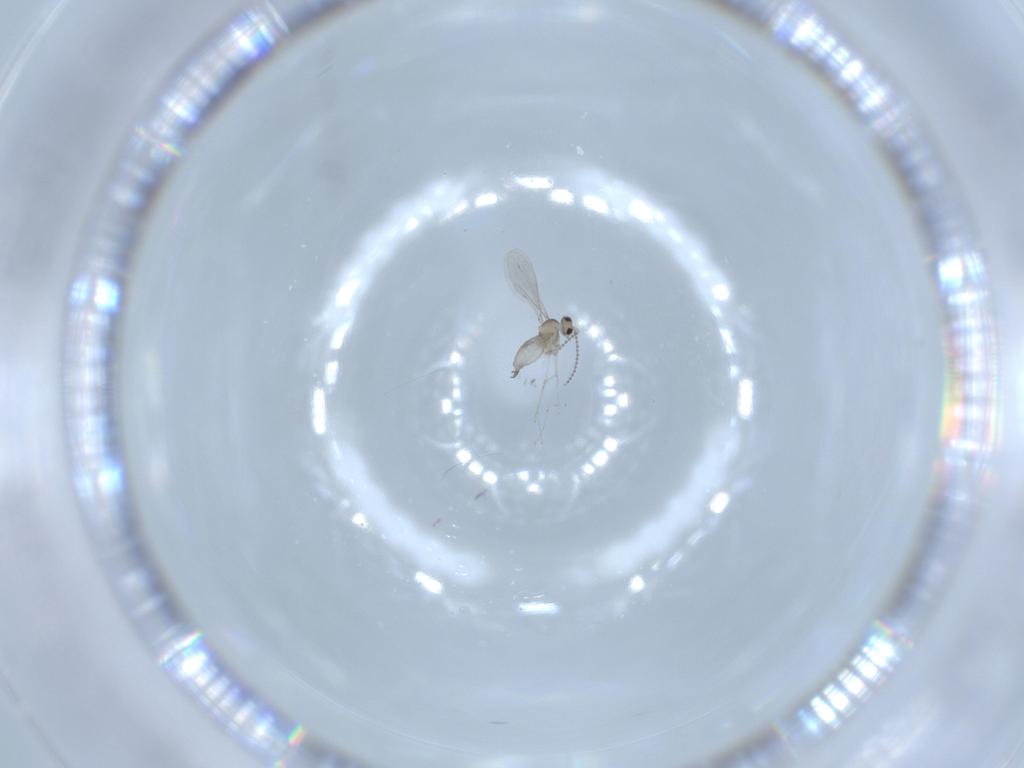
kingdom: Animalia
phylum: Arthropoda
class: Insecta
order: Diptera
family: Cecidomyiidae
